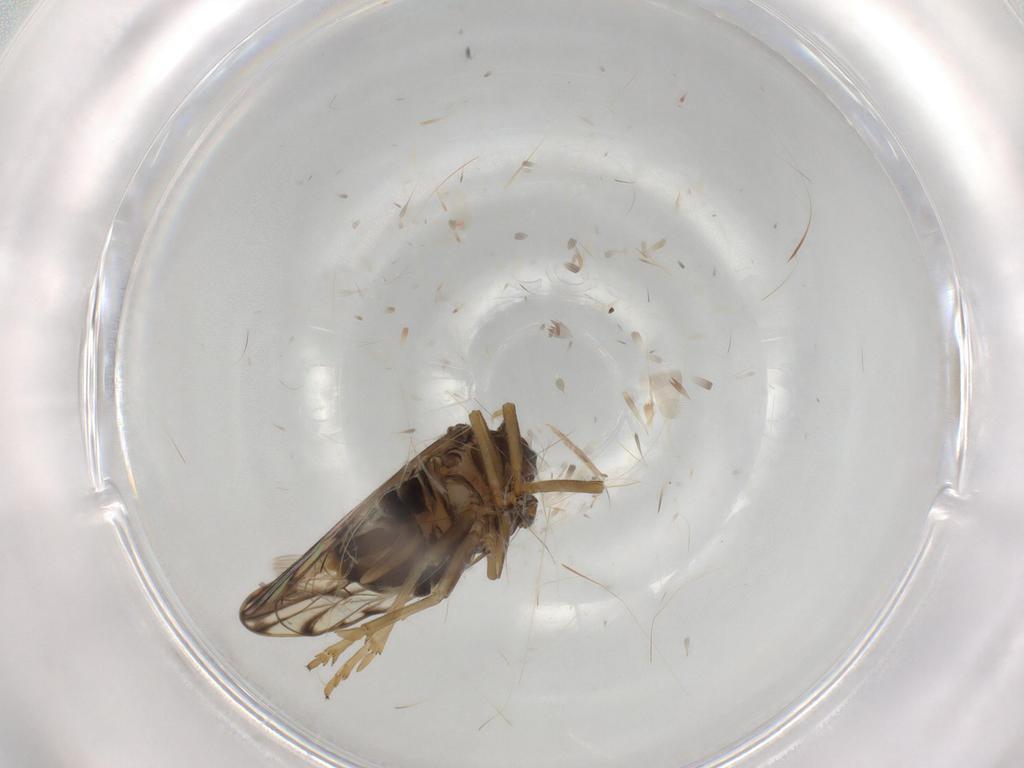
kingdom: Animalia
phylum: Arthropoda
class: Insecta
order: Hemiptera
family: Delphacidae
